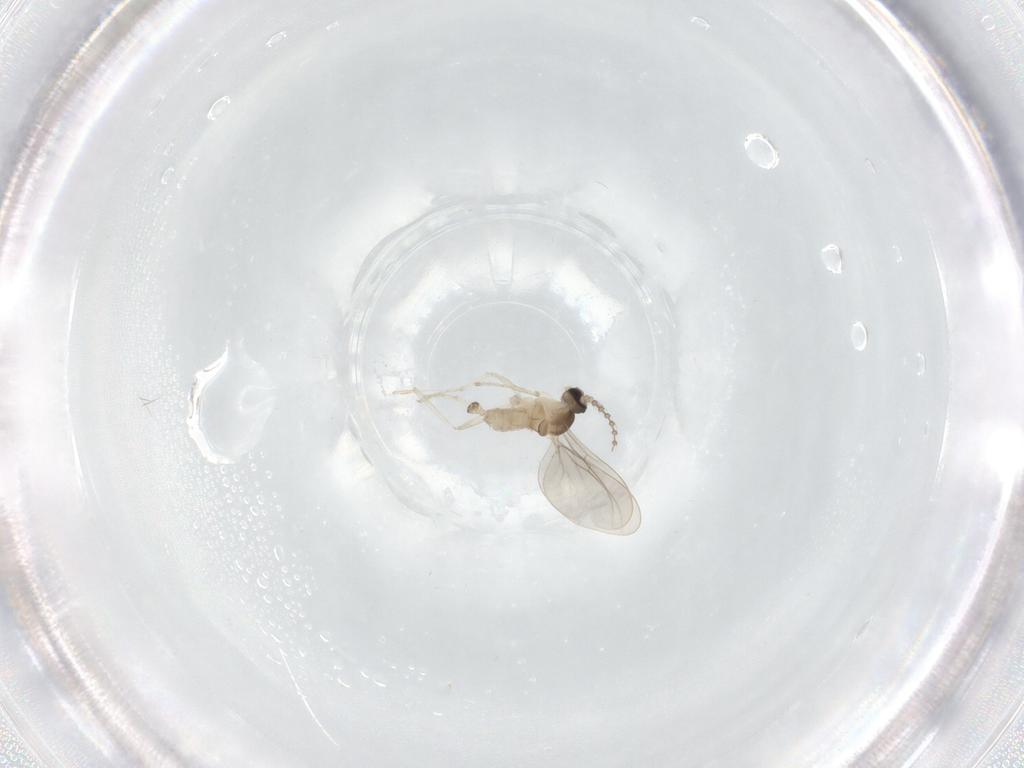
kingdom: Animalia
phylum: Arthropoda
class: Insecta
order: Diptera
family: Cecidomyiidae
